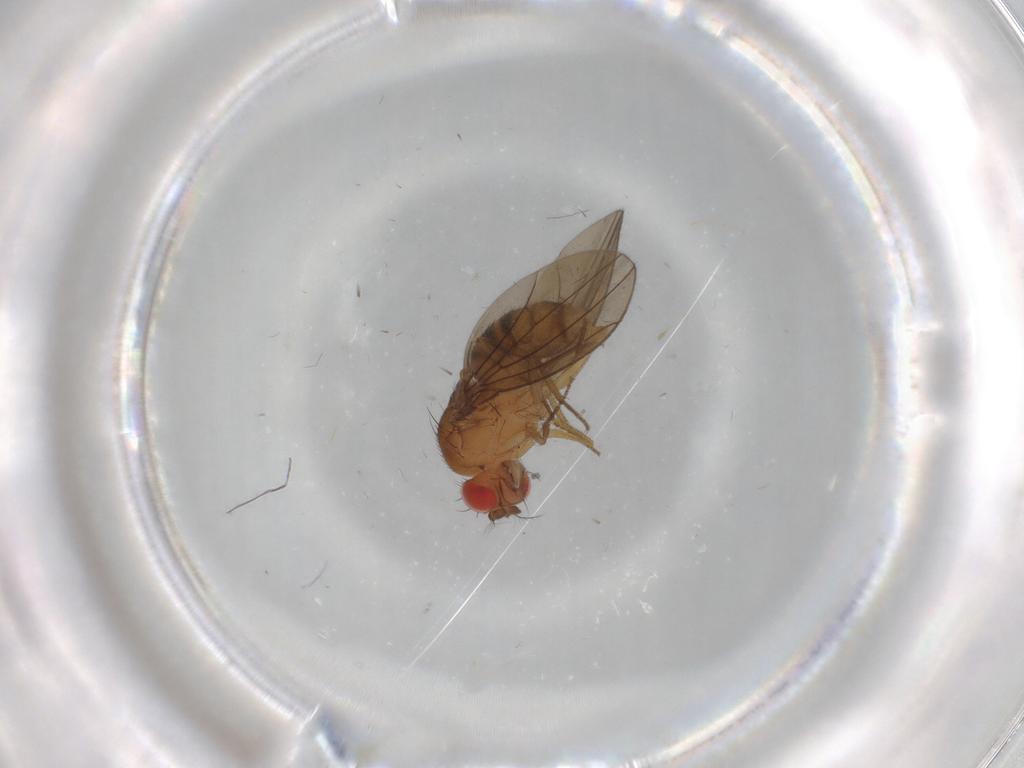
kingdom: Animalia
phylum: Arthropoda
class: Insecta
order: Diptera
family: Drosophilidae
